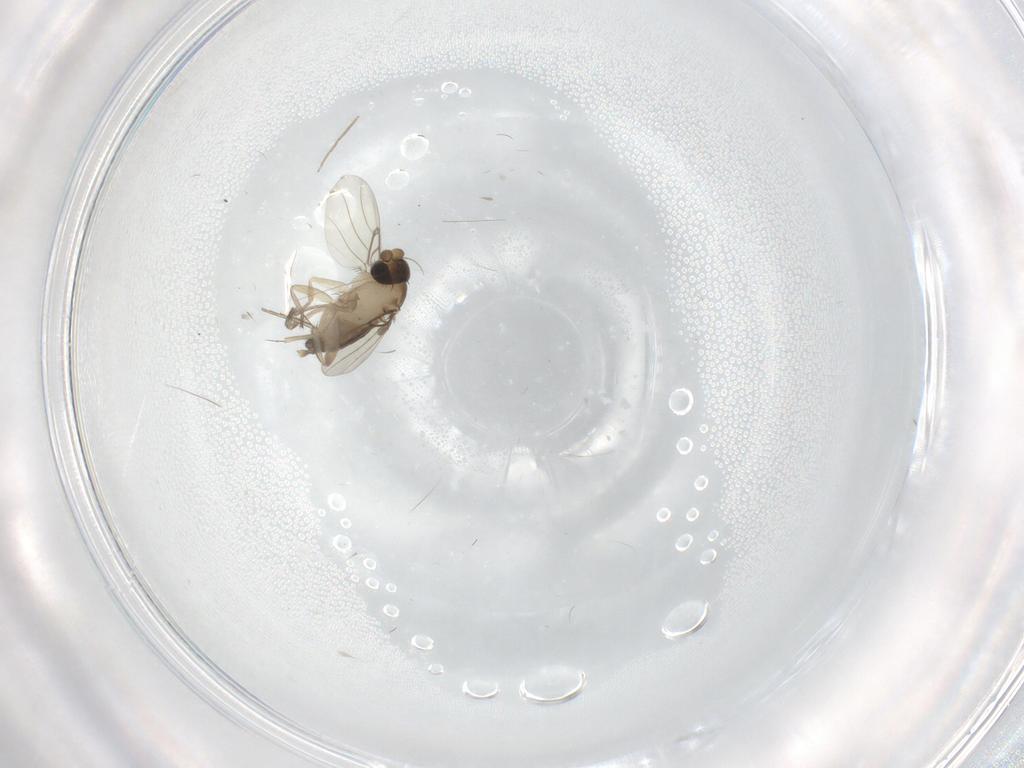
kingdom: Animalia
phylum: Arthropoda
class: Insecta
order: Diptera
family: Phoridae
